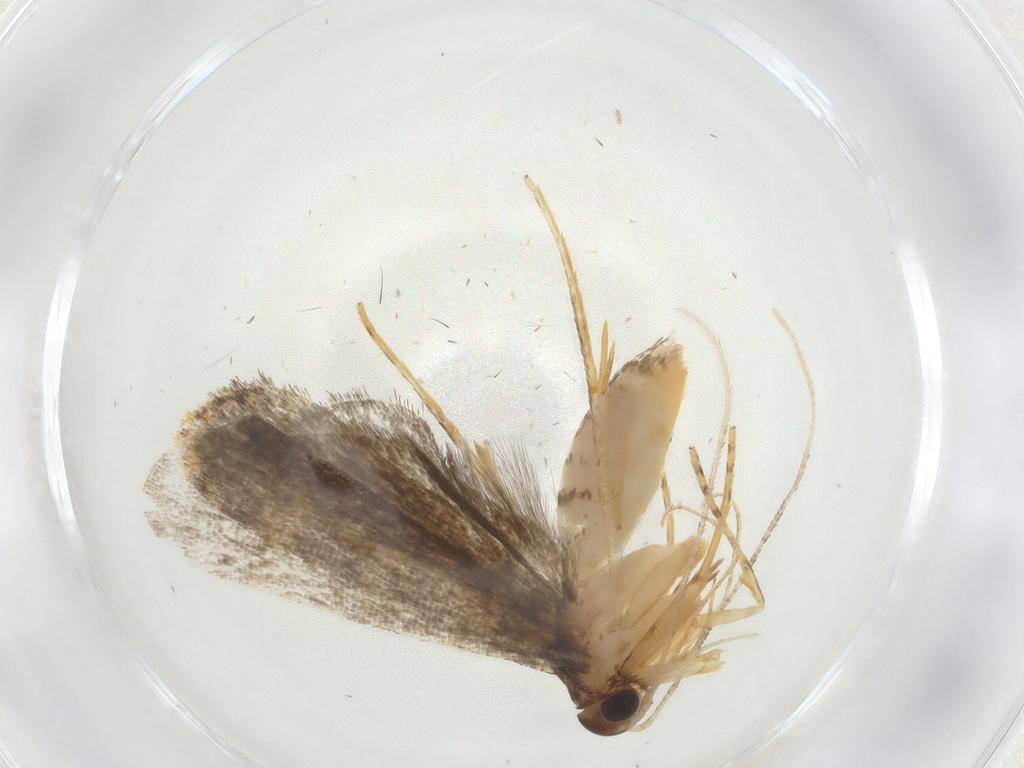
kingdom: Animalia
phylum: Arthropoda
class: Insecta
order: Lepidoptera
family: Cosmopterigidae
